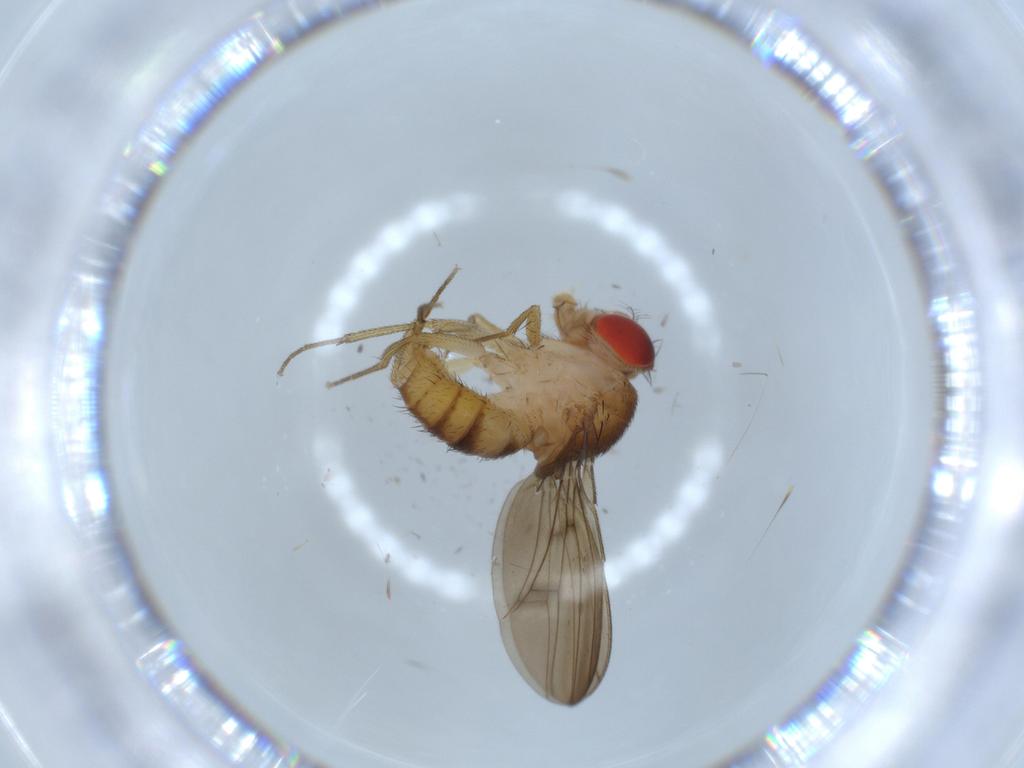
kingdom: Animalia
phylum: Arthropoda
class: Insecta
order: Diptera
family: Drosophilidae
